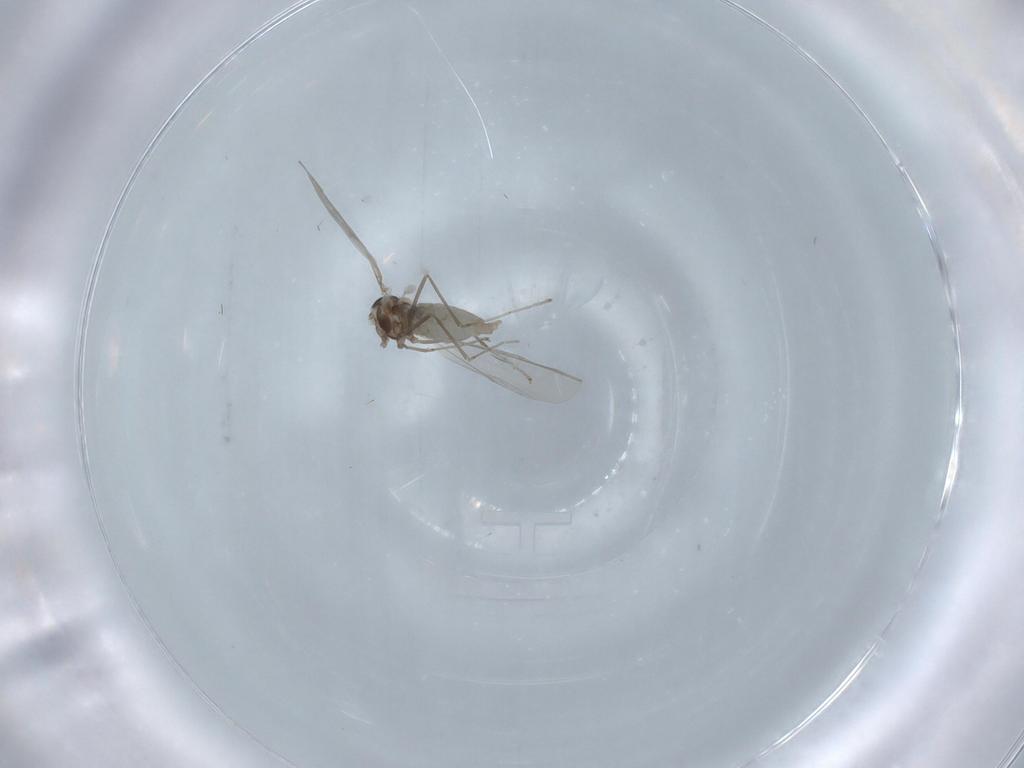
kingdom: Animalia
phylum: Arthropoda
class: Insecta
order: Diptera
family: Cecidomyiidae
